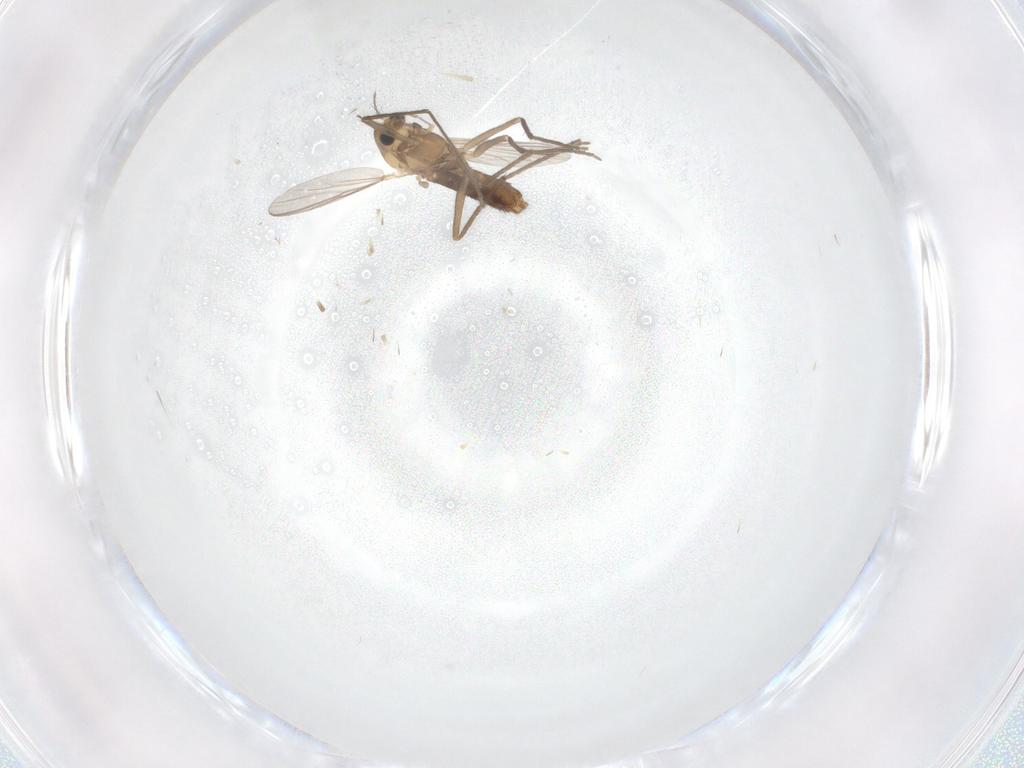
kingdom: Animalia
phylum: Arthropoda
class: Insecta
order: Diptera
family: Chironomidae
